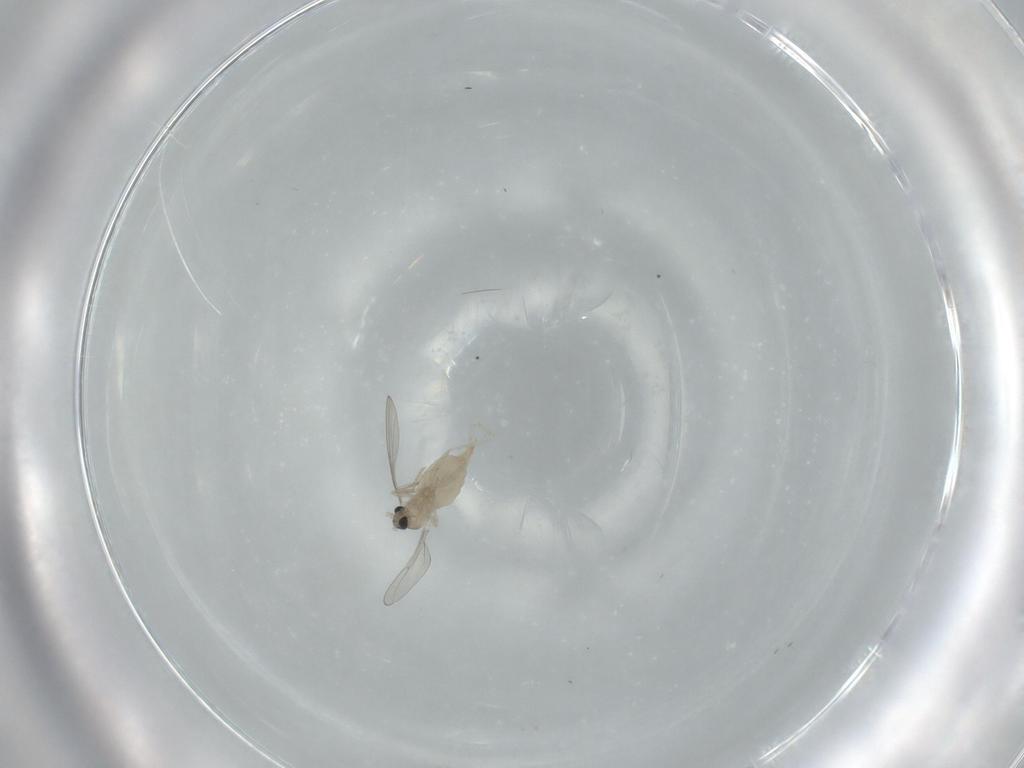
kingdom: Animalia
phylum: Arthropoda
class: Insecta
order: Diptera
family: Cecidomyiidae
